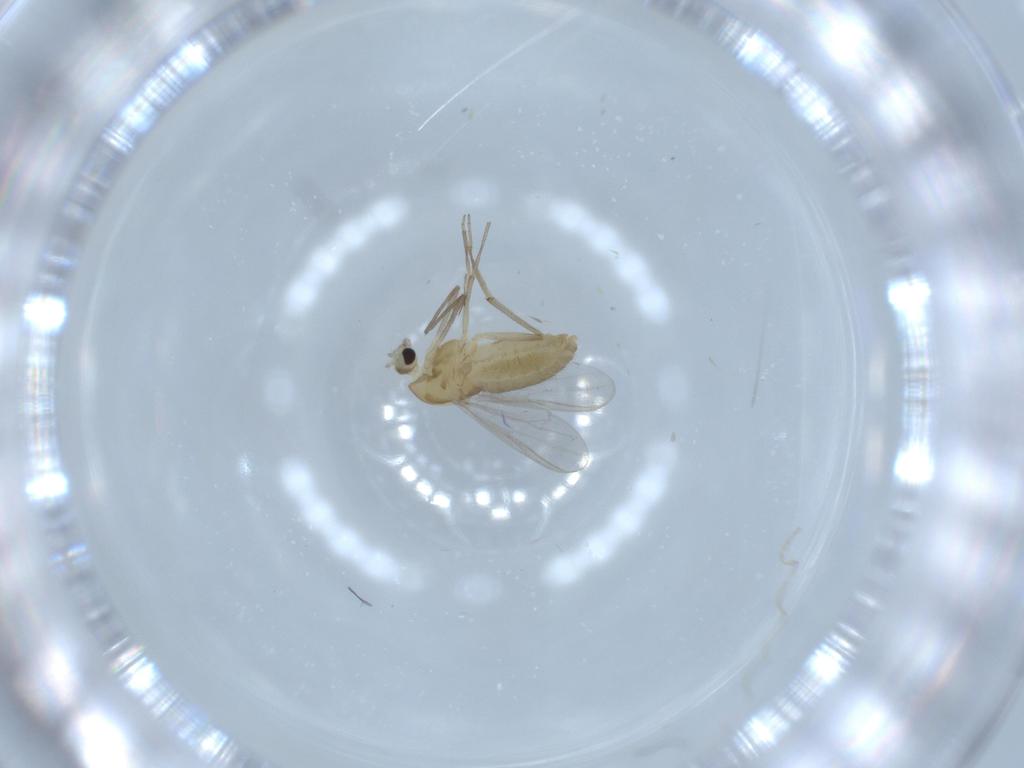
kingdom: Animalia
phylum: Arthropoda
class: Insecta
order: Diptera
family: Chironomidae
